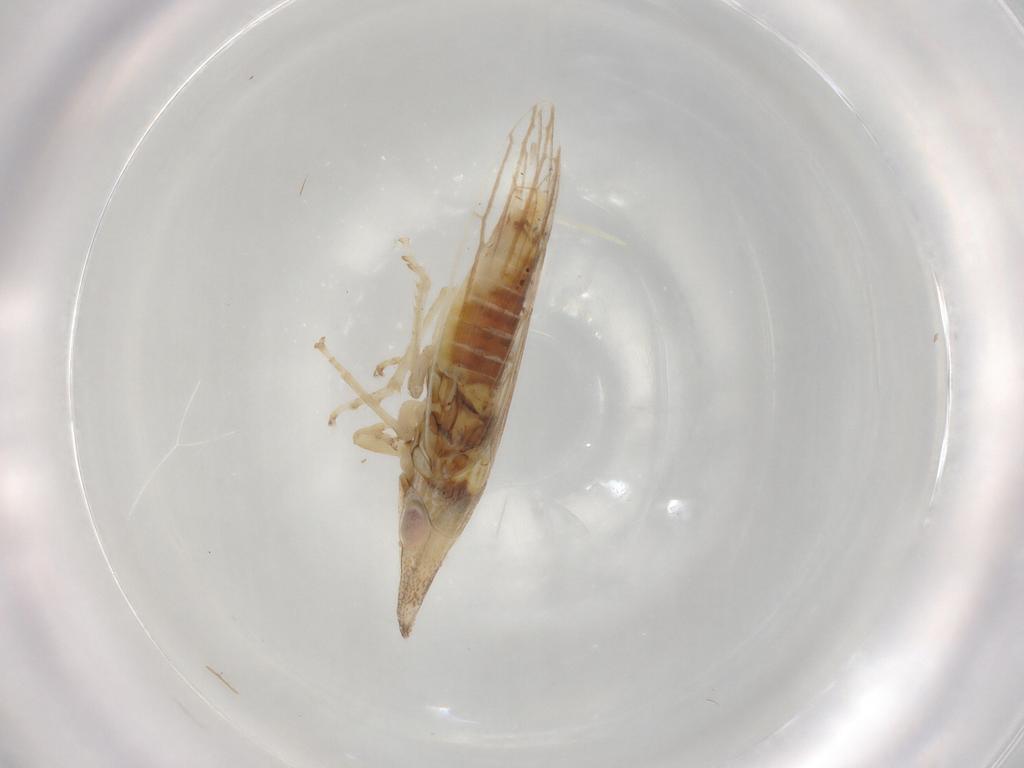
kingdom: Animalia
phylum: Arthropoda
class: Insecta
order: Hemiptera
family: Cicadellidae
